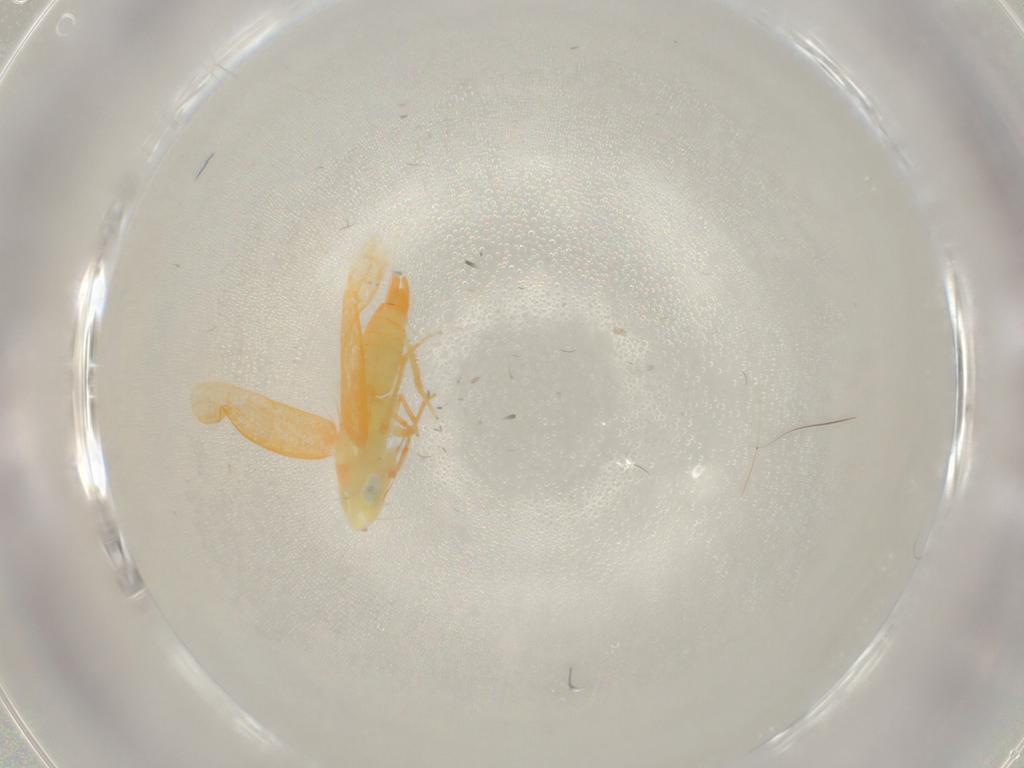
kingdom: Animalia
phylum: Arthropoda
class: Insecta
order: Hemiptera
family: Cicadellidae
